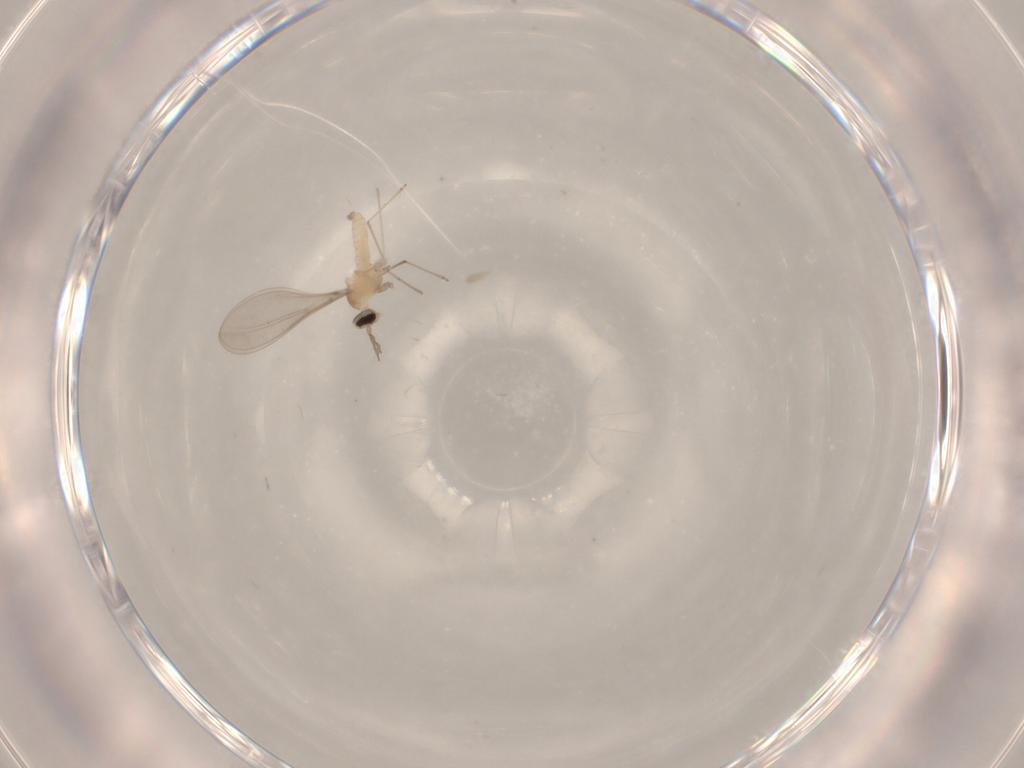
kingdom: Animalia
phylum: Arthropoda
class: Insecta
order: Diptera
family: Cecidomyiidae
